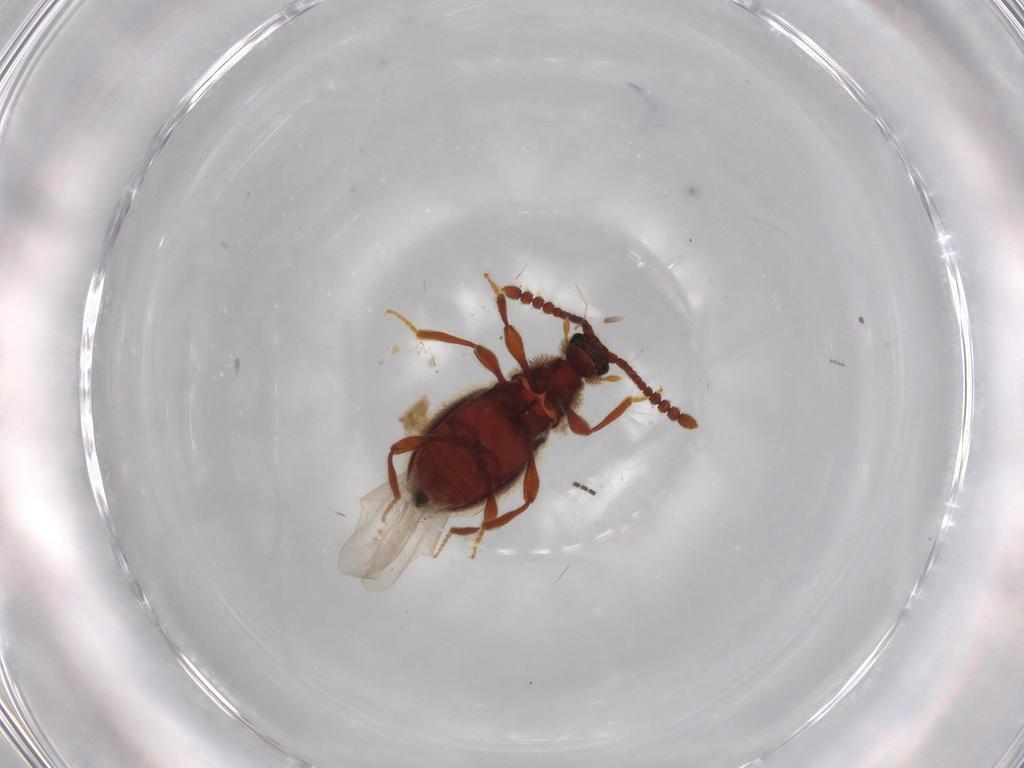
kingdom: Animalia
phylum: Arthropoda
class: Insecta
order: Coleoptera
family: Staphylinidae
